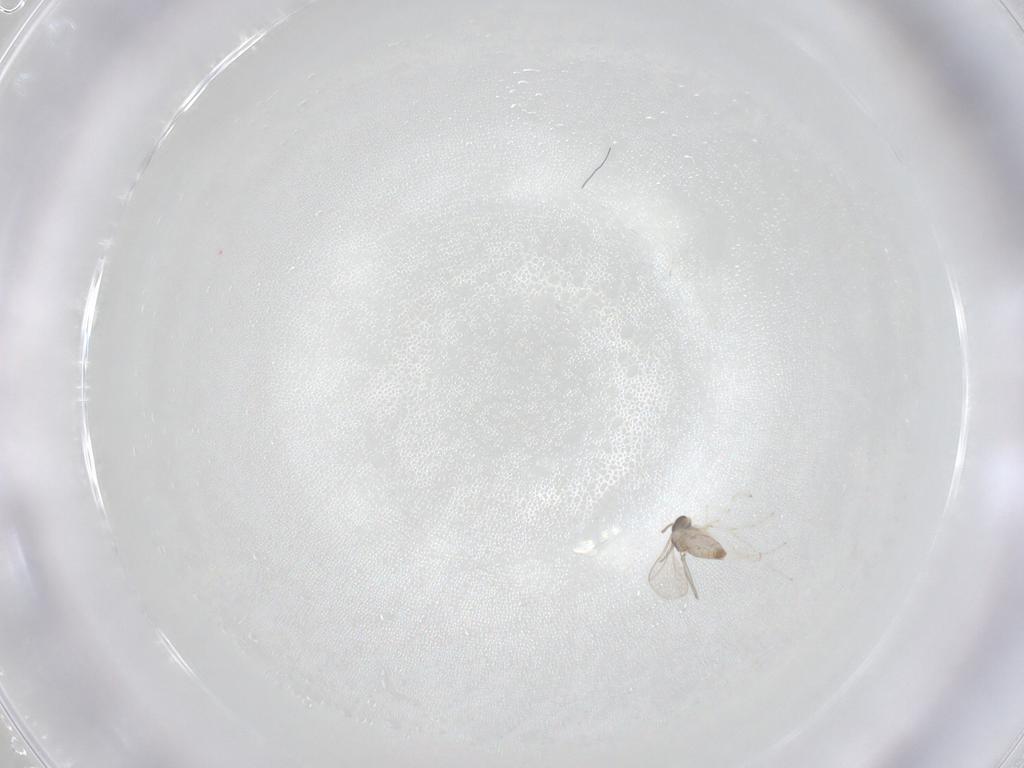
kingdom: Animalia
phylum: Arthropoda
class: Insecta
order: Diptera
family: Cecidomyiidae
